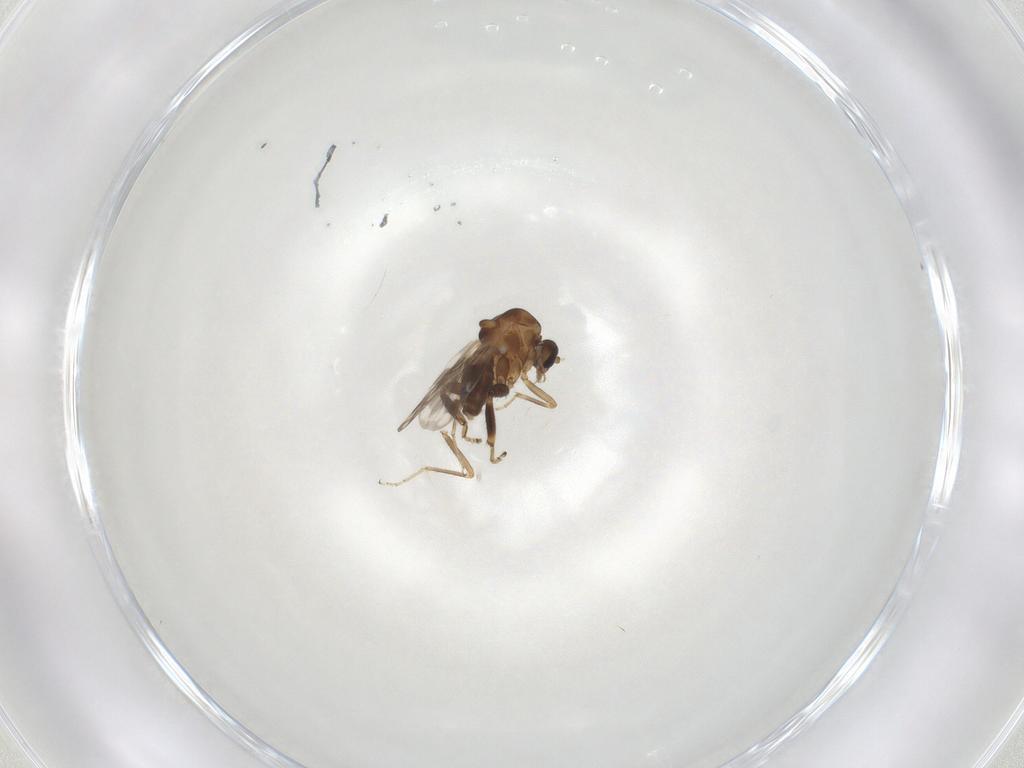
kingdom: Animalia
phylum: Arthropoda
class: Insecta
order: Diptera
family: Ceratopogonidae
